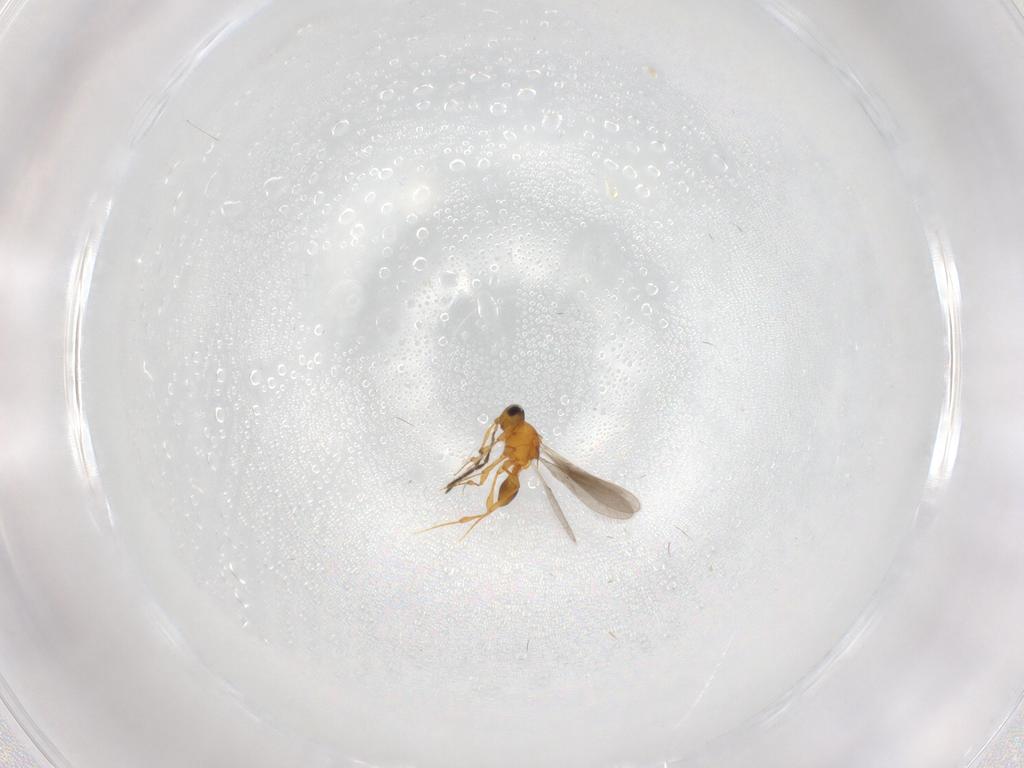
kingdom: Animalia
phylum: Arthropoda
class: Insecta
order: Hymenoptera
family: Platygastridae
